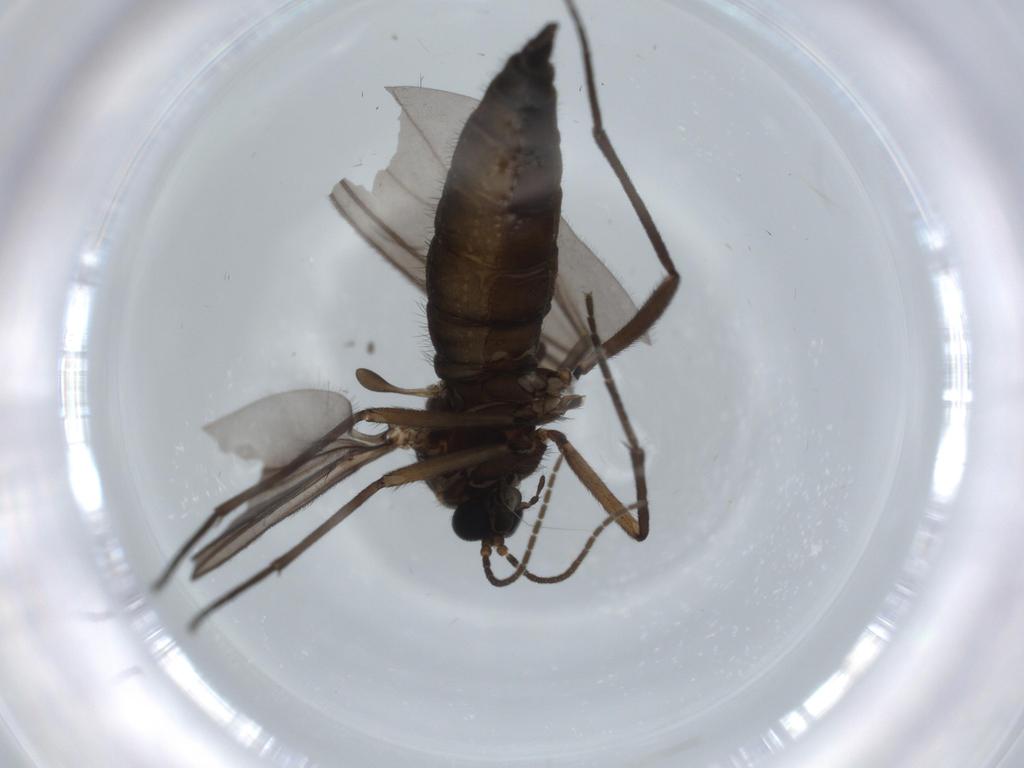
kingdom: Animalia
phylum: Arthropoda
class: Insecta
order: Diptera
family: Sciaridae
